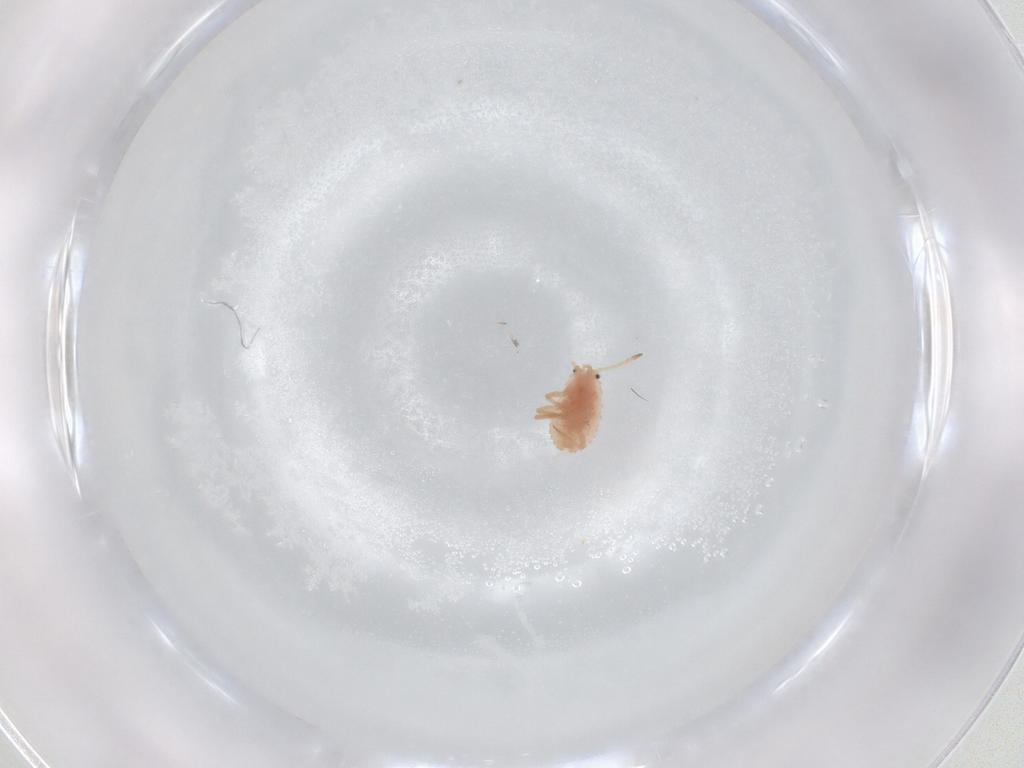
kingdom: Animalia
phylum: Arthropoda
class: Insecta
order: Hemiptera
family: Coccoidea_incertae_sedis
